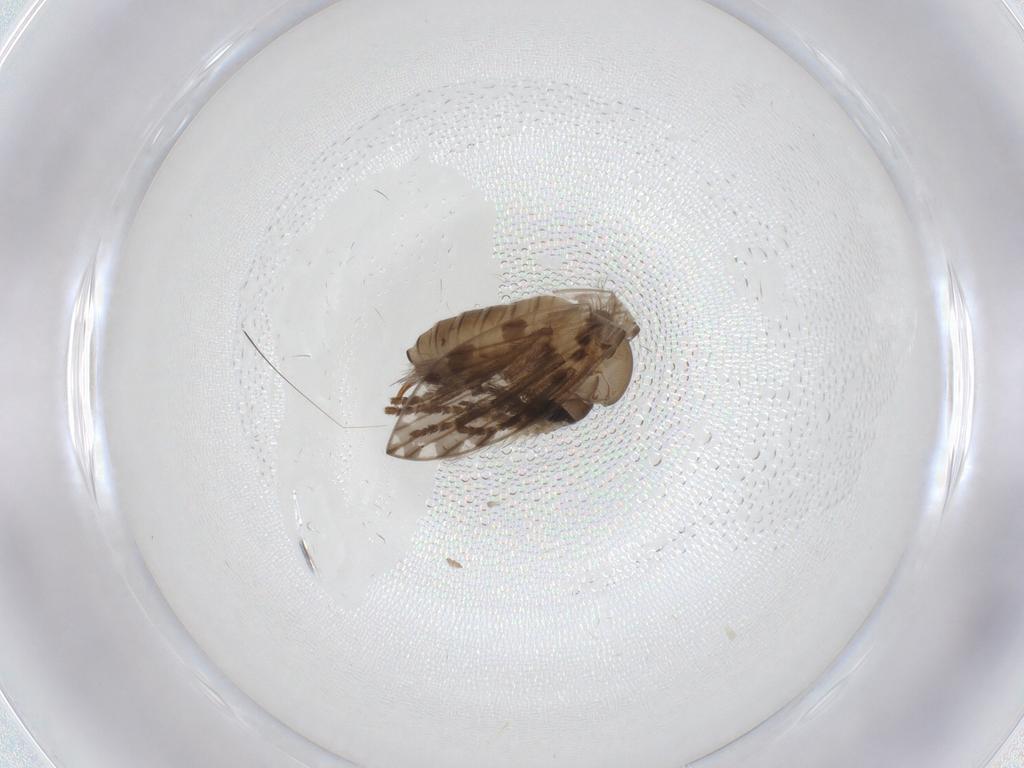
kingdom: Animalia
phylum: Arthropoda
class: Insecta
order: Diptera
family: Psychodidae
